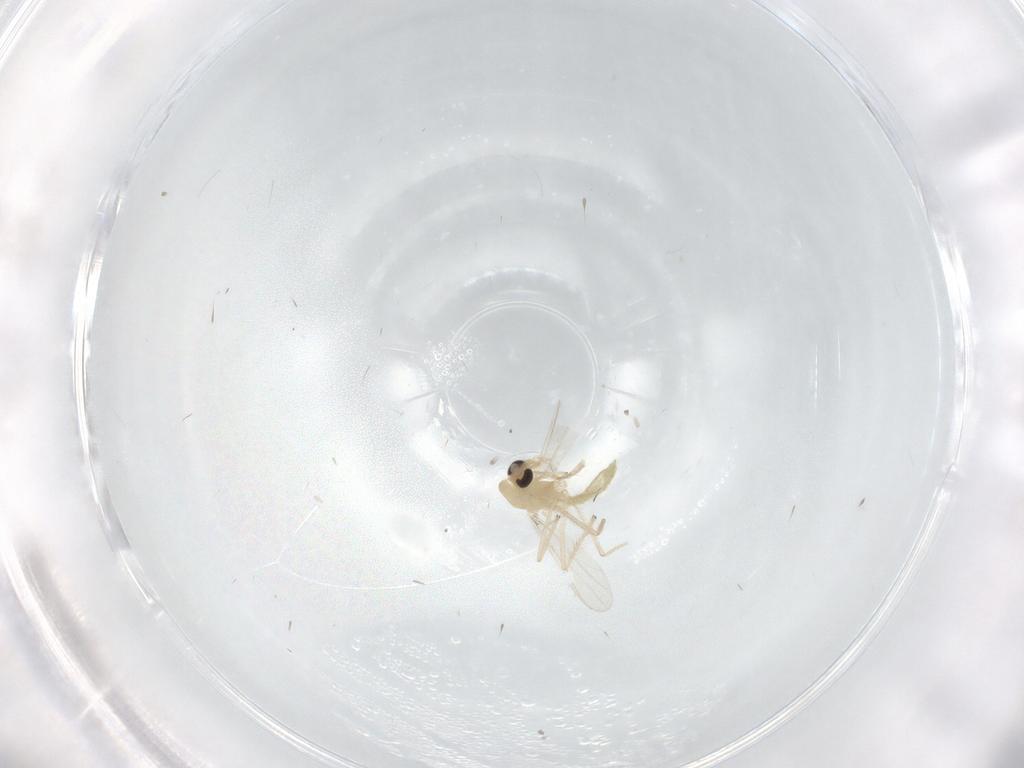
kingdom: Animalia
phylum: Arthropoda
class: Insecta
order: Diptera
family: Chironomidae
